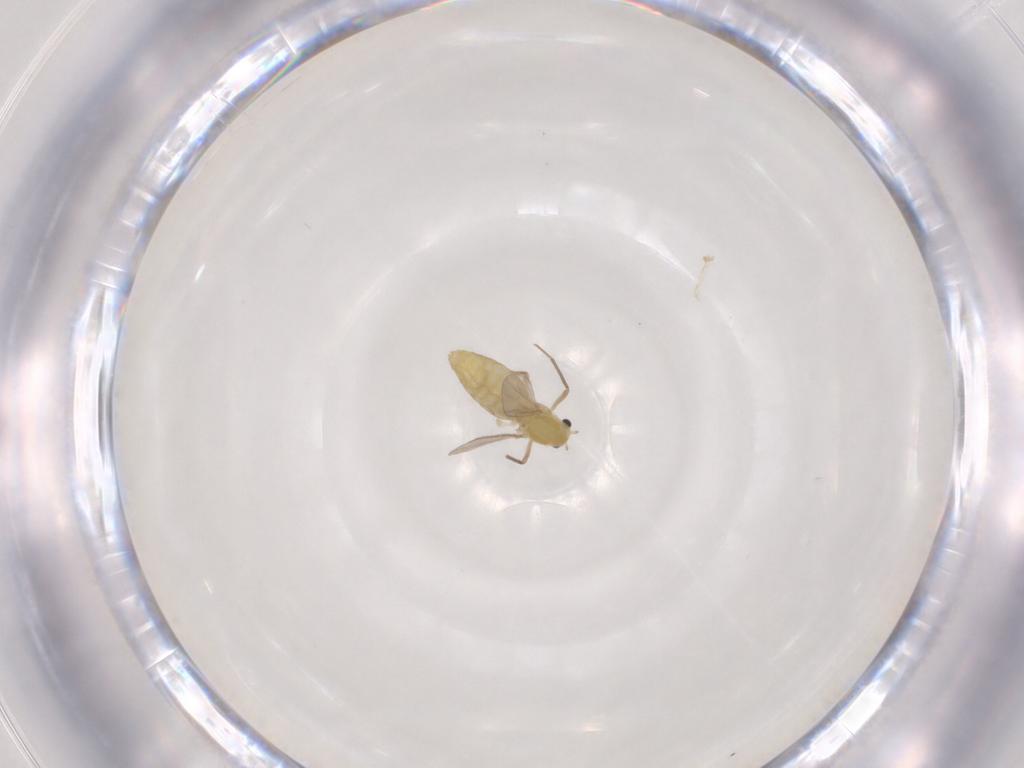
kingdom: Animalia
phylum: Arthropoda
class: Insecta
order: Diptera
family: Chironomidae
